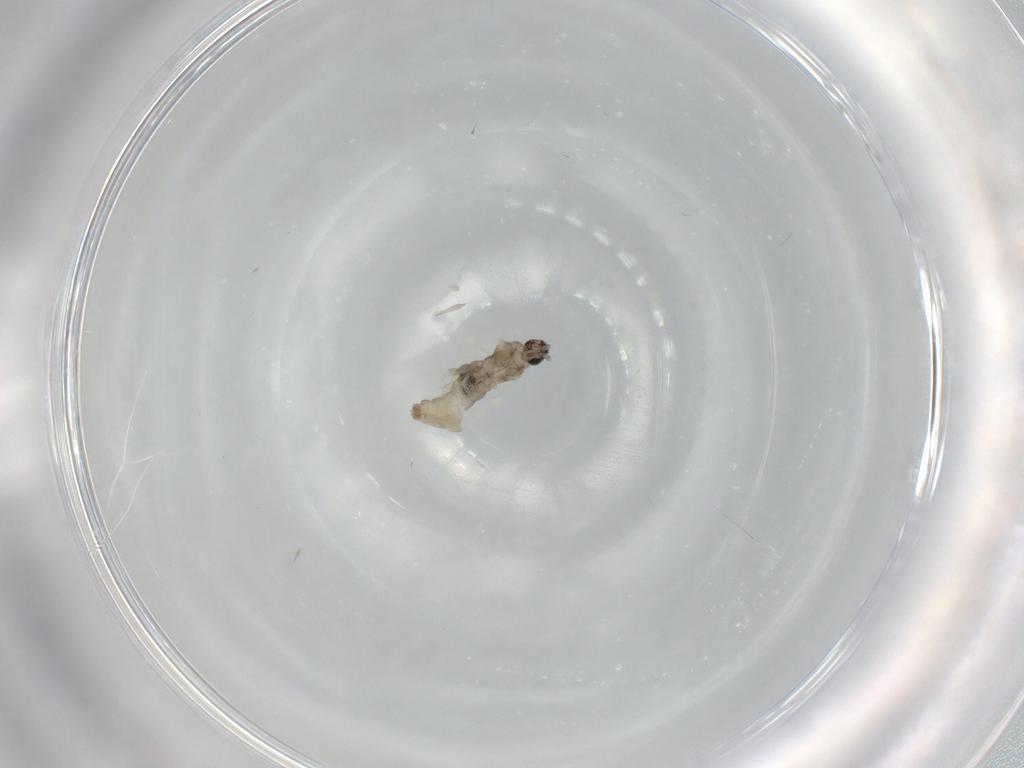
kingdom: Animalia
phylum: Arthropoda
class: Insecta
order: Diptera
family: Cecidomyiidae
